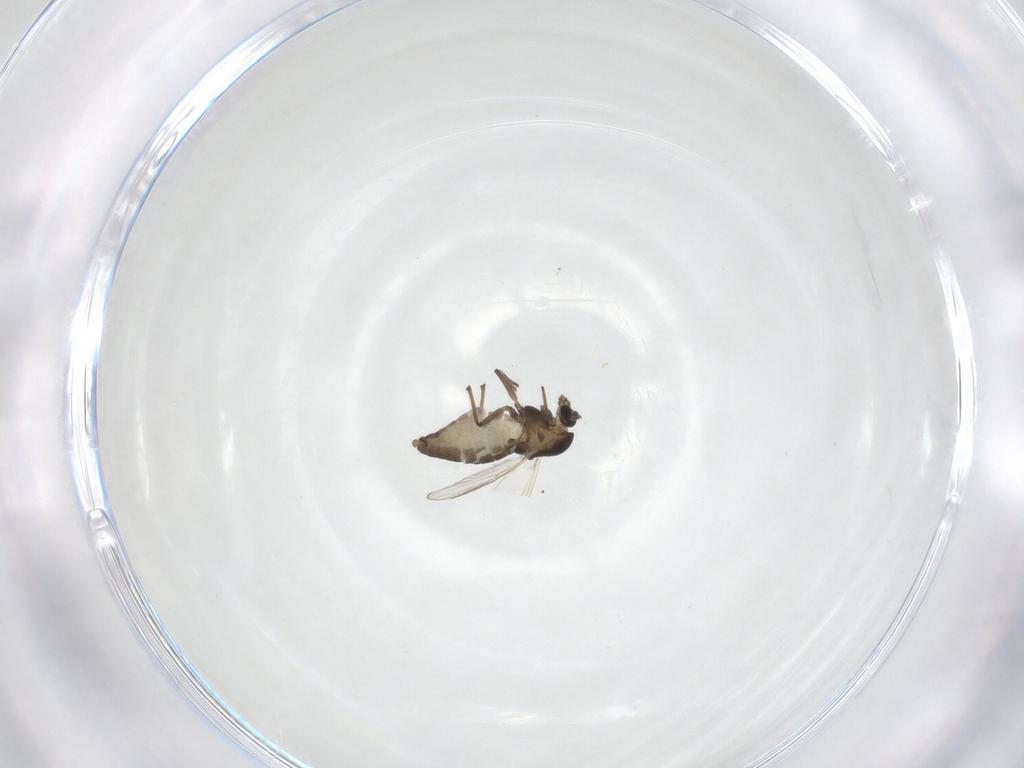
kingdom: Animalia
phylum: Arthropoda
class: Insecta
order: Diptera
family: Chironomidae
